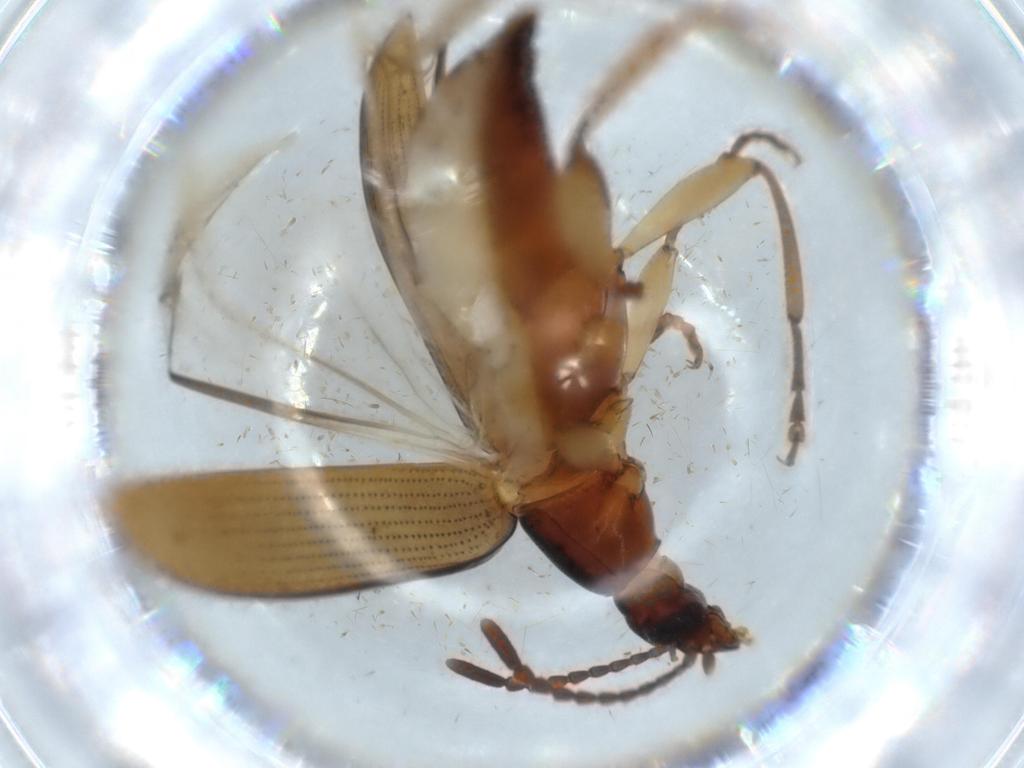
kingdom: Animalia
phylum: Arthropoda
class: Insecta
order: Coleoptera
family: Tenebrionidae
